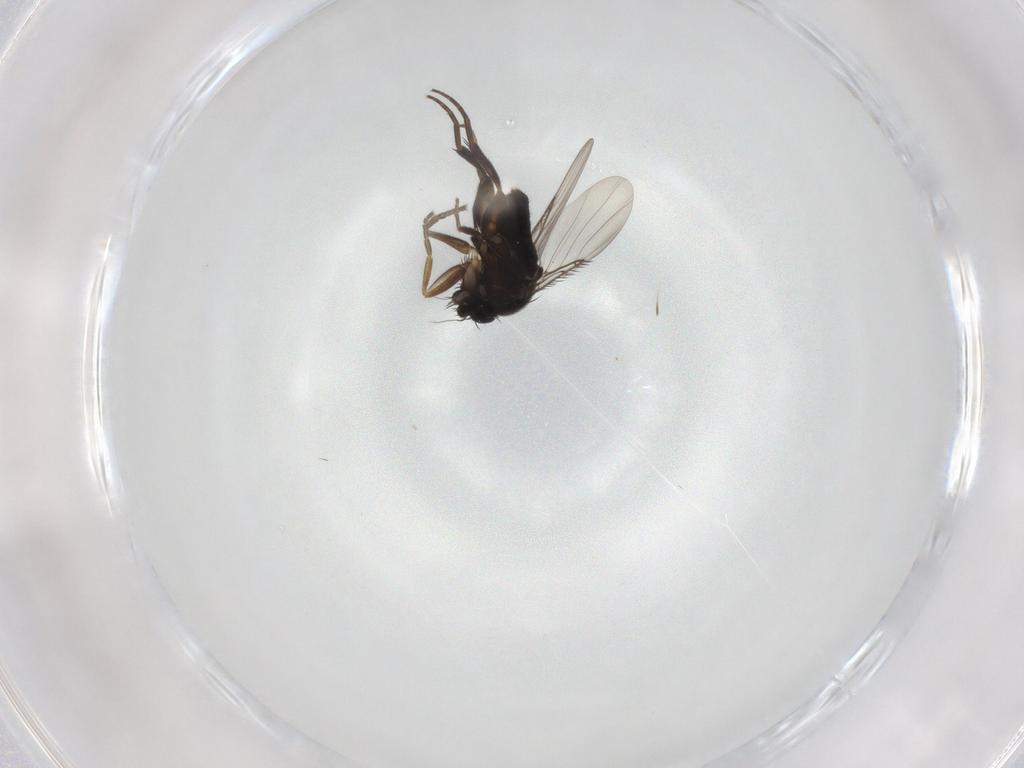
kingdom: Animalia
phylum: Arthropoda
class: Insecta
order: Diptera
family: Phoridae
